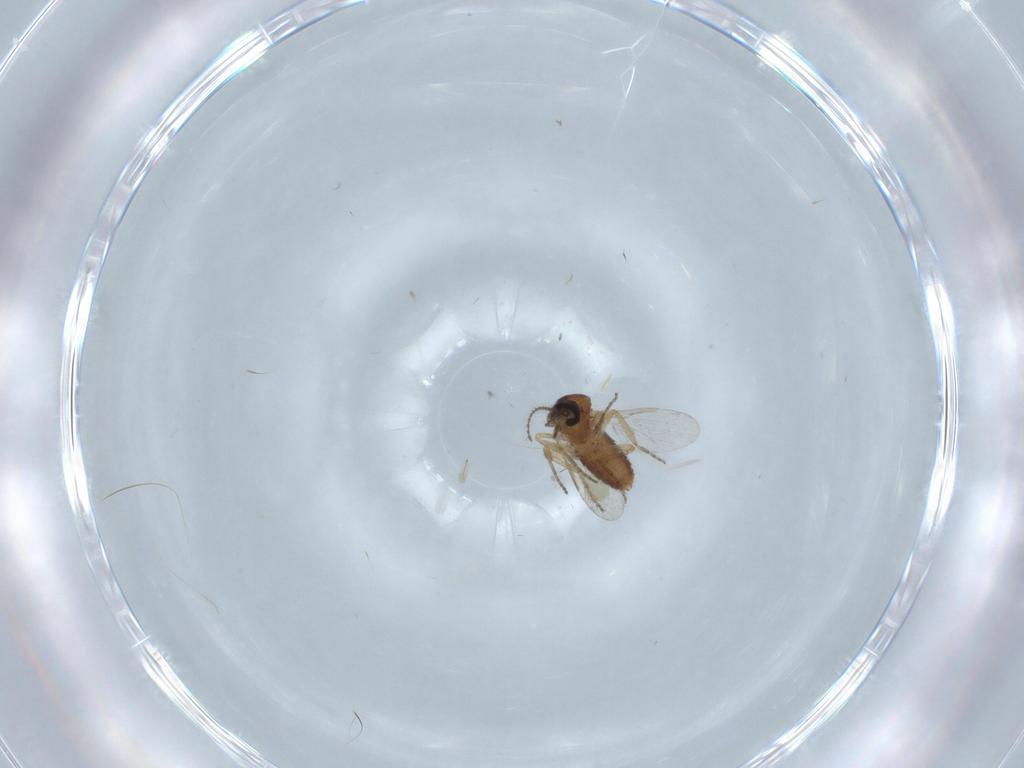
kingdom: Animalia
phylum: Arthropoda
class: Insecta
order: Diptera
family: Ceratopogonidae
